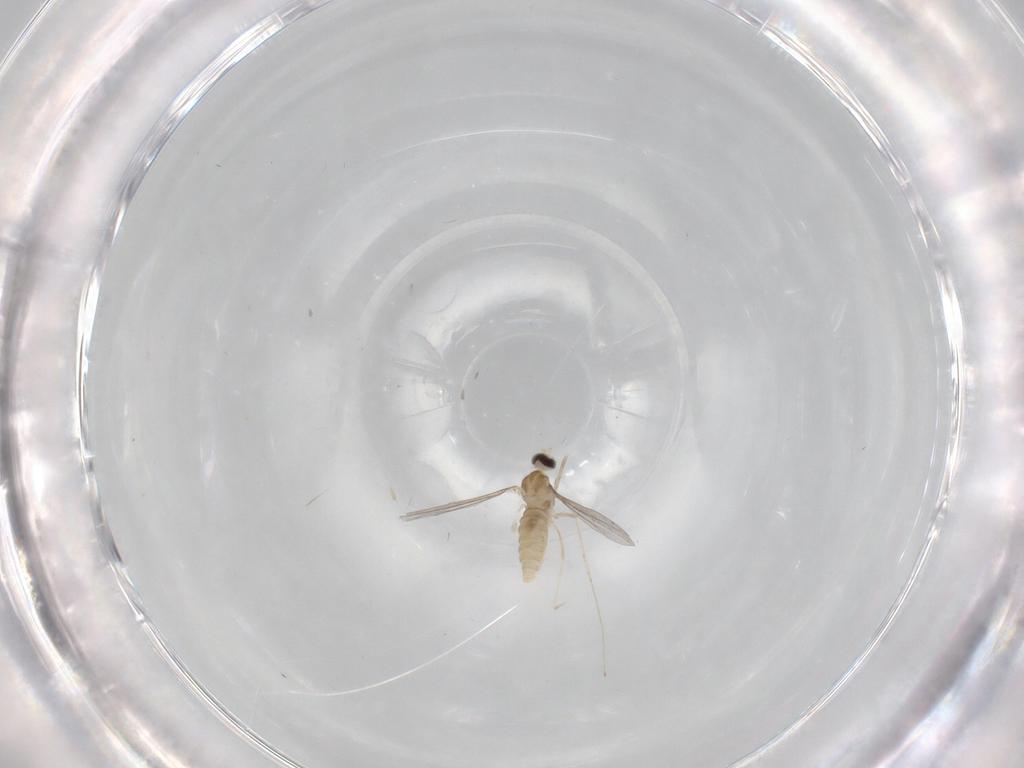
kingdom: Animalia
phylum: Arthropoda
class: Insecta
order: Diptera
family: Cecidomyiidae
